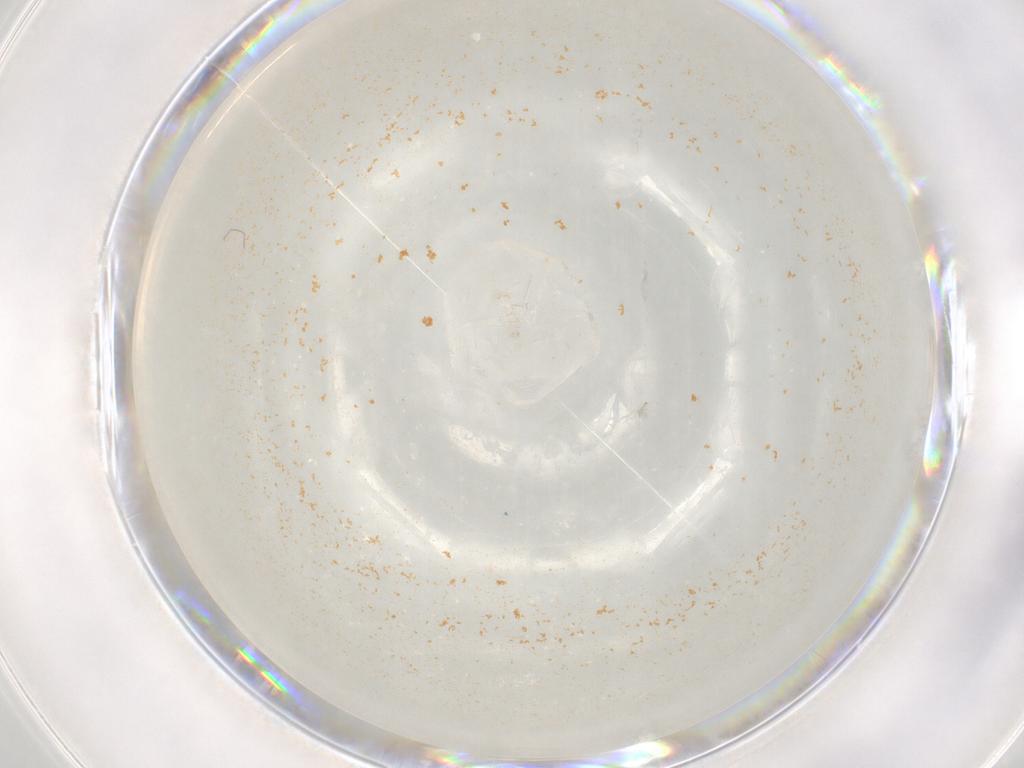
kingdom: Animalia
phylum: Arthropoda
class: Insecta
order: Diptera
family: Cecidomyiidae
